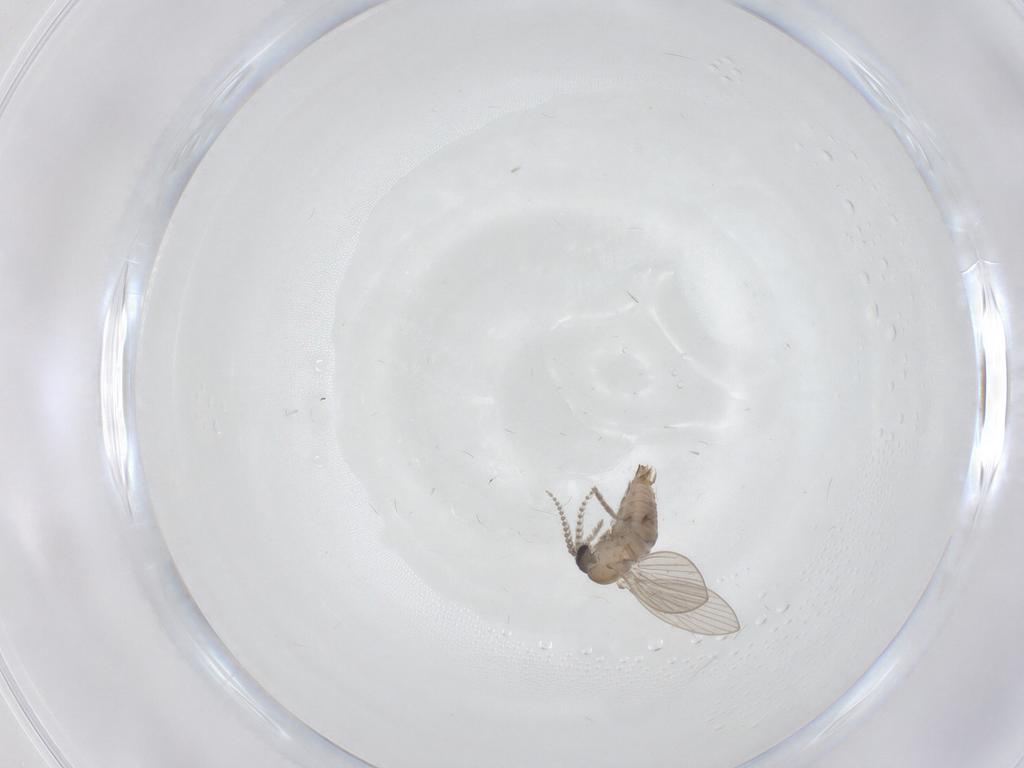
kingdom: Animalia
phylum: Arthropoda
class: Insecta
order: Diptera
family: Psychodidae
